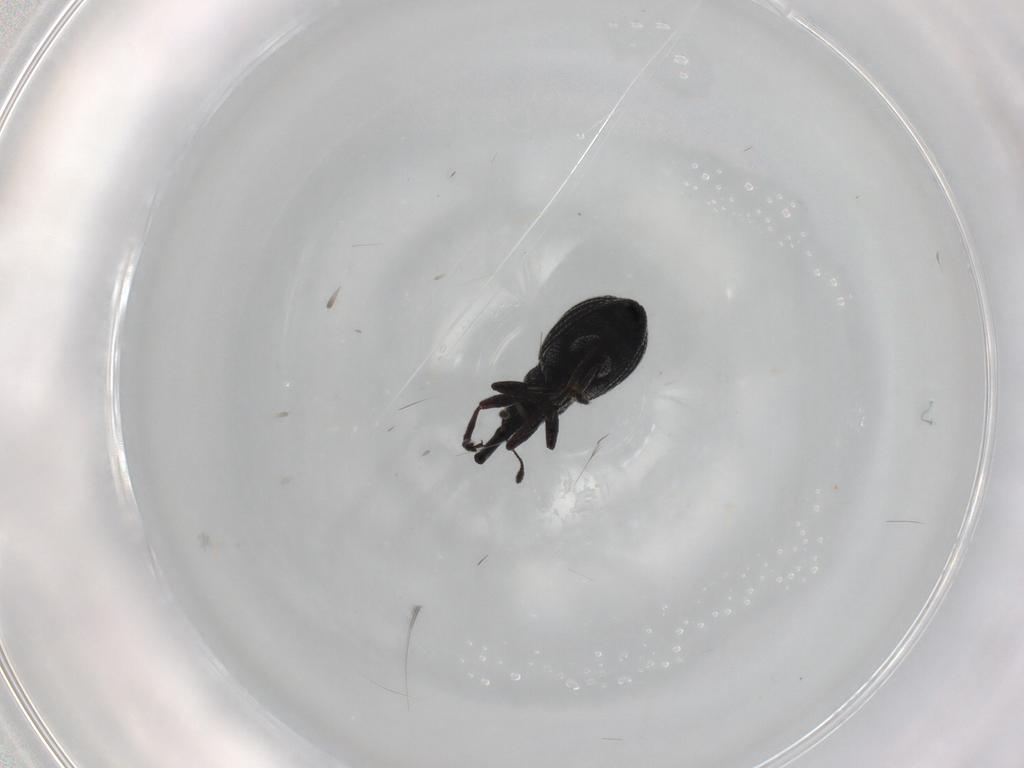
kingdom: Animalia
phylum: Arthropoda
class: Insecta
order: Coleoptera
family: Brentidae
